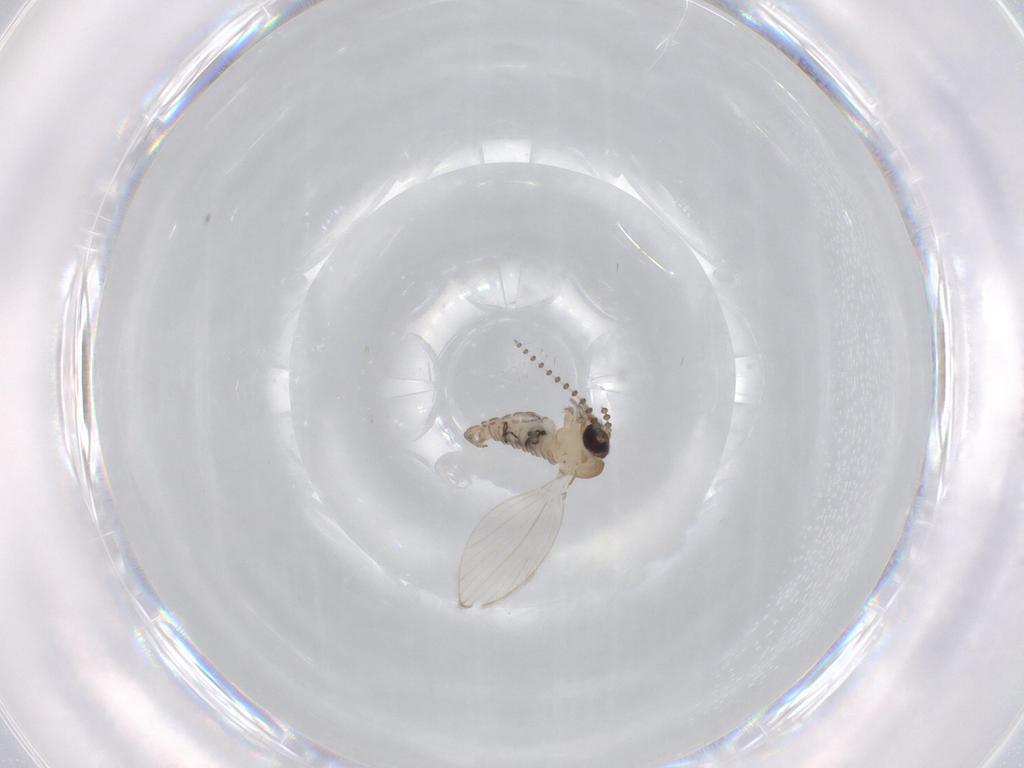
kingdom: Animalia
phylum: Arthropoda
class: Insecta
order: Diptera
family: Psychodidae
